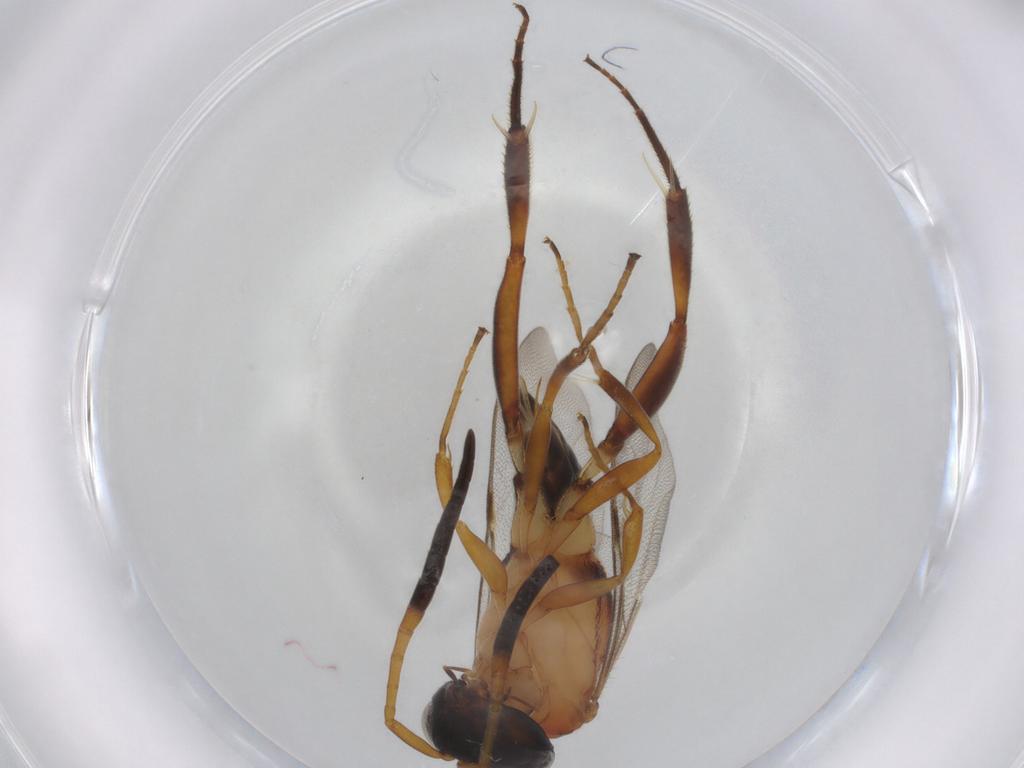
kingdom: Animalia
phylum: Arthropoda
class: Insecta
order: Hymenoptera
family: Evaniidae
